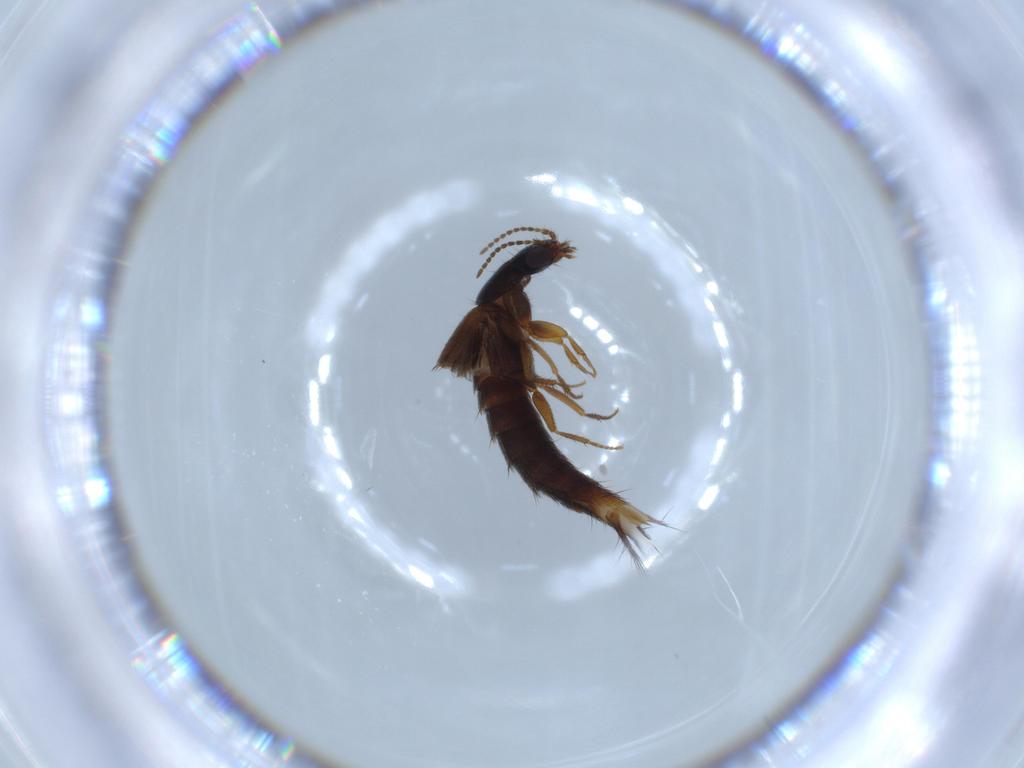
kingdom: Animalia
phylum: Arthropoda
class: Insecta
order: Coleoptera
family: Staphylinidae
